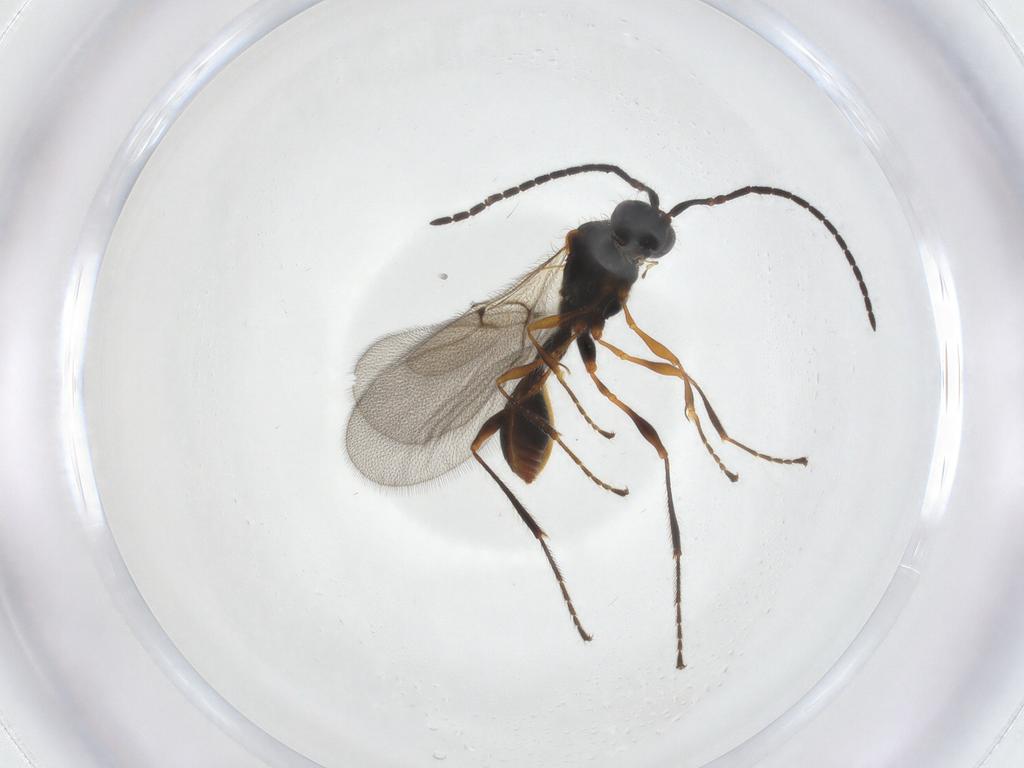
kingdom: Animalia
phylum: Arthropoda
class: Insecta
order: Hymenoptera
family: Diapriidae
